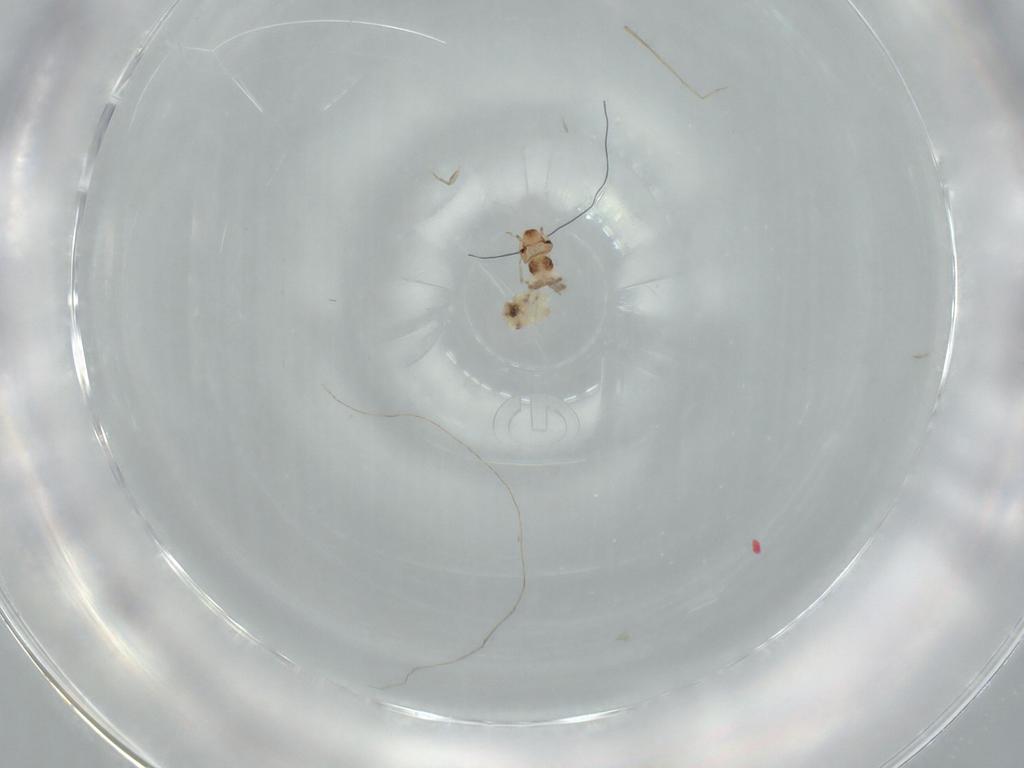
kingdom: Animalia
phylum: Arthropoda
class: Insecta
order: Psocodea
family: Liposcelididae
